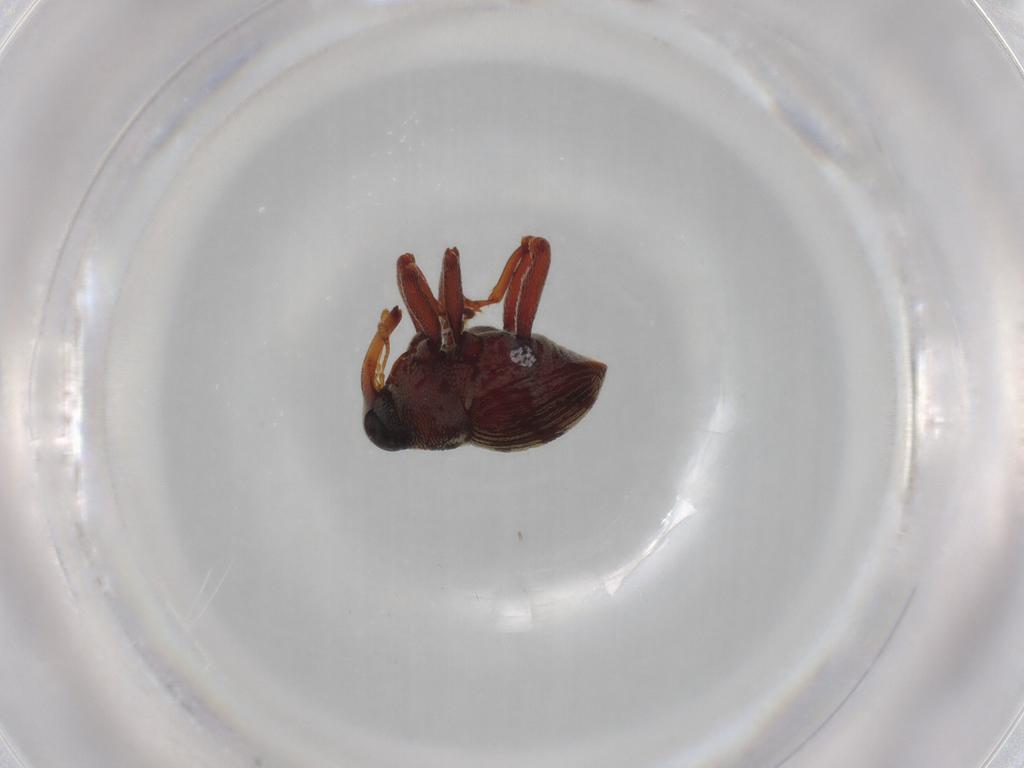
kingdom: Animalia
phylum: Arthropoda
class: Insecta
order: Coleoptera
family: Curculionidae
